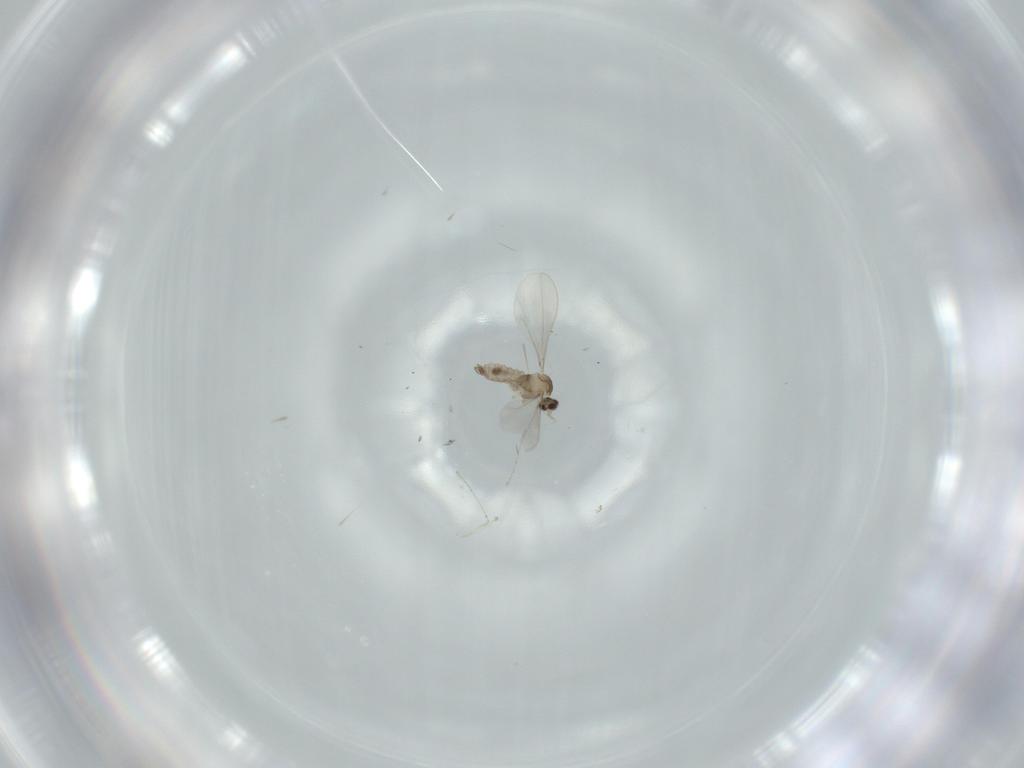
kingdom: Animalia
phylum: Arthropoda
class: Insecta
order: Diptera
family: Cecidomyiidae
